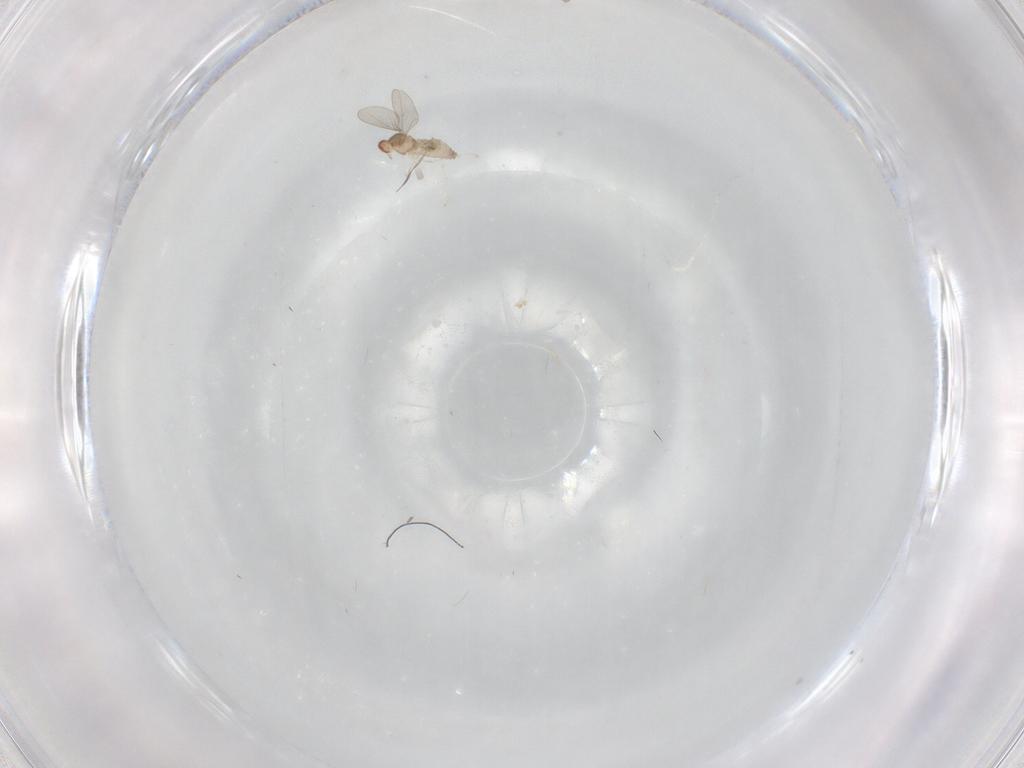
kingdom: Animalia
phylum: Arthropoda
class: Insecta
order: Diptera
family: Cecidomyiidae
